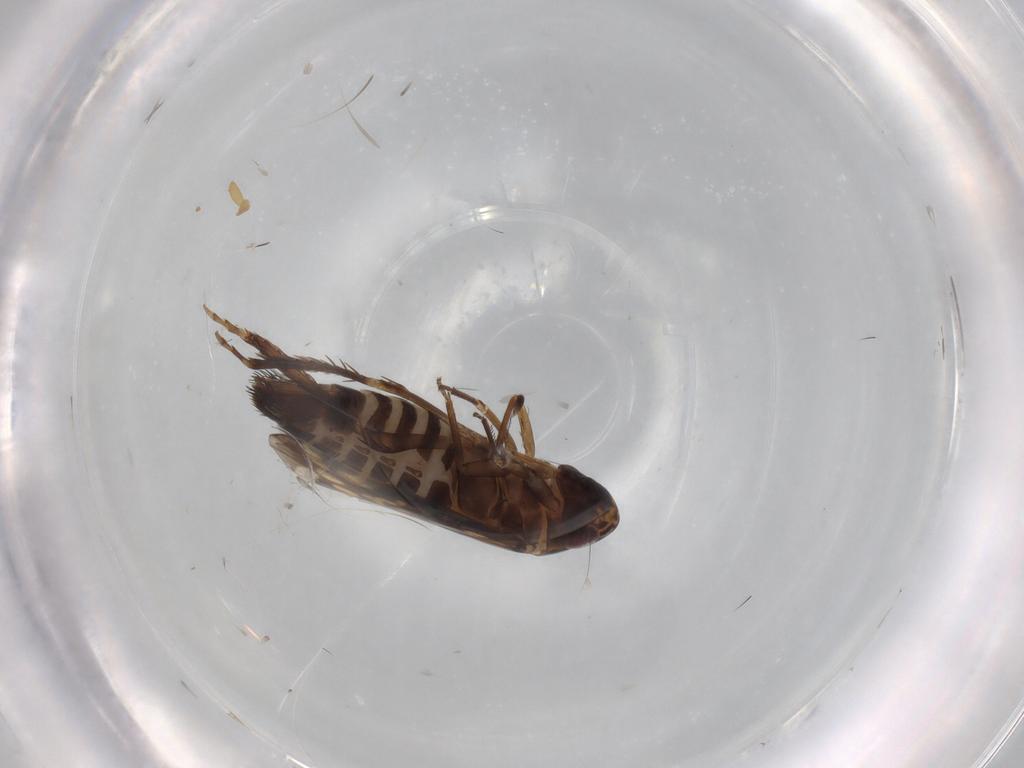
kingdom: Animalia
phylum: Arthropoda
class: Insecta
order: Hemiptera
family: Cicadellidae
